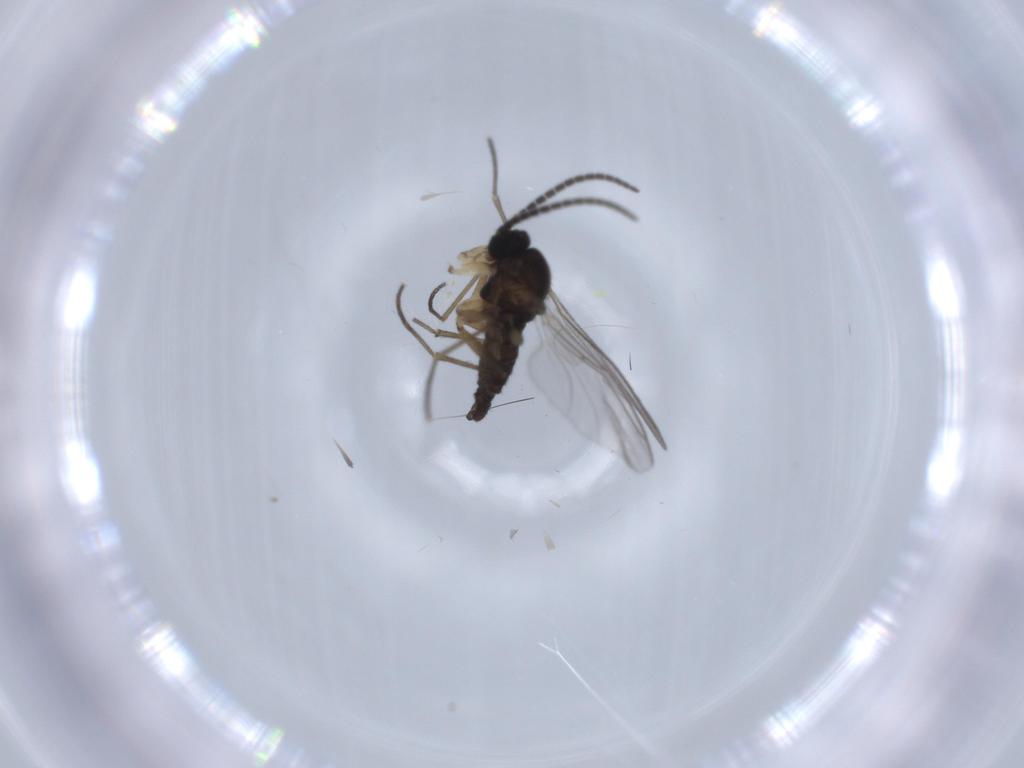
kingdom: Animalia
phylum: Arthropoda
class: Insecta
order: Diptera
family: Sciaridae
